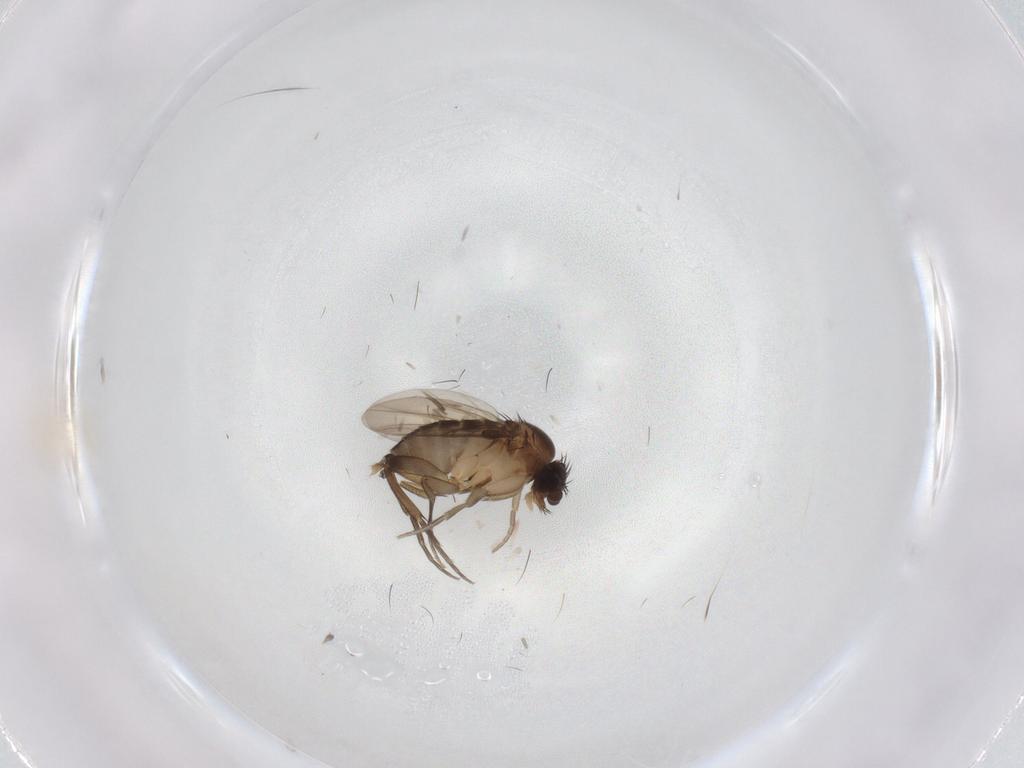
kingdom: Animalia
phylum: Arthropoda
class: Insecta
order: Diptera
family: Phoridae
